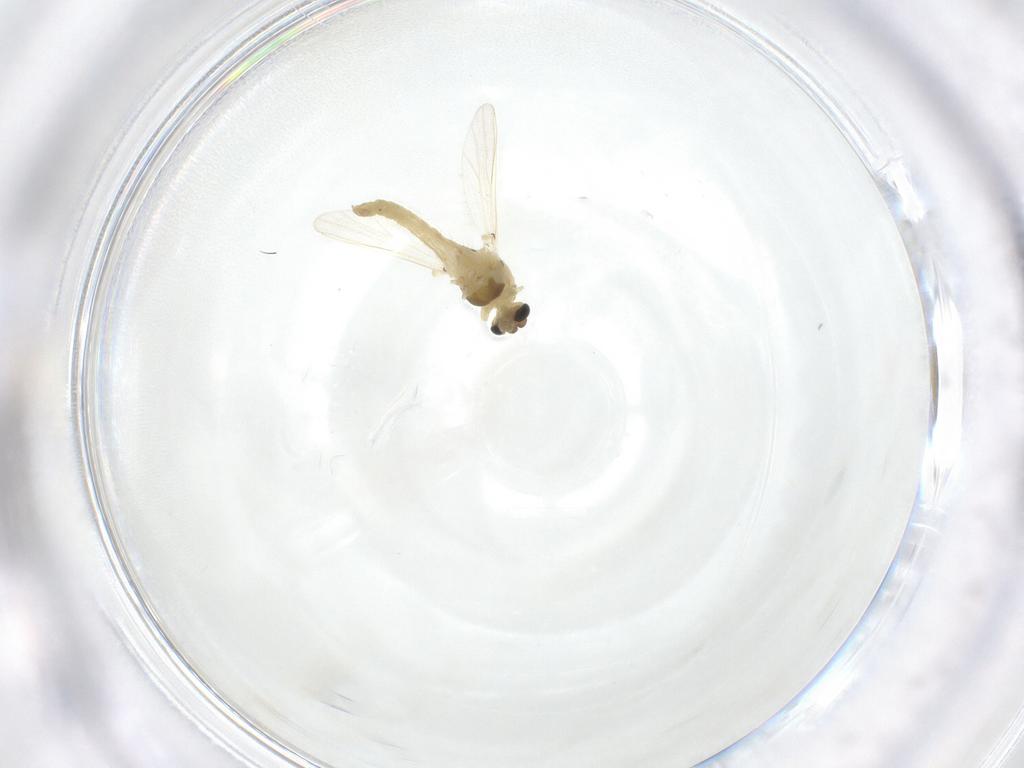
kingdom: Animalia
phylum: Arthropoda
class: Insecta
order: Diptera
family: Chironomidae
